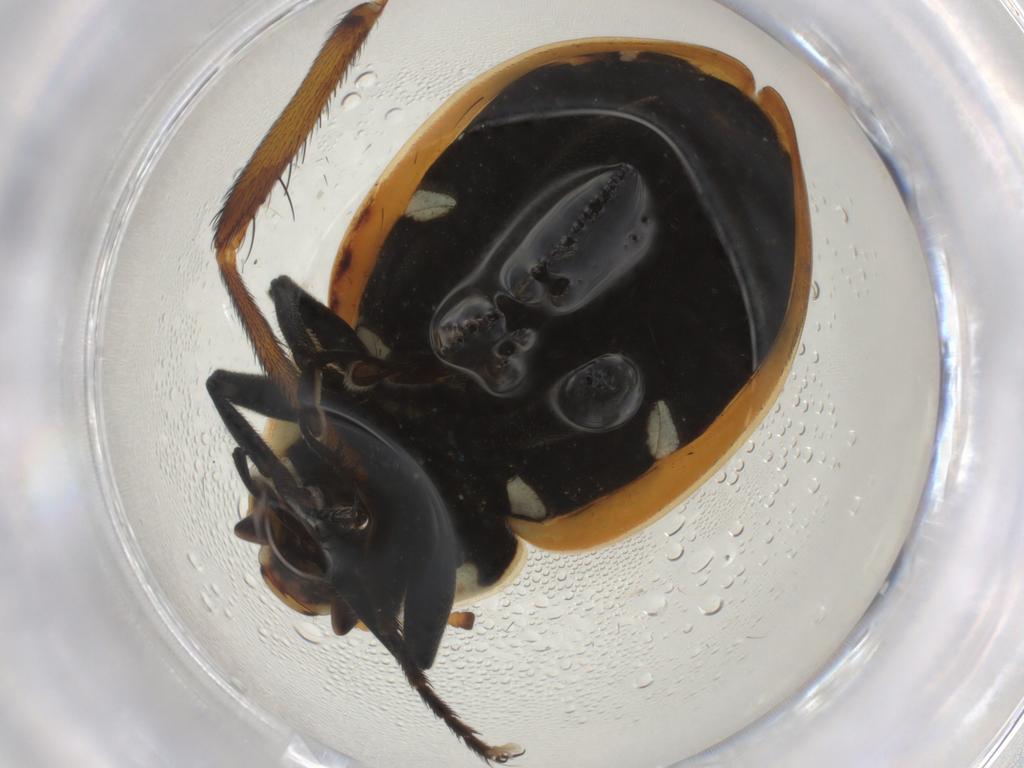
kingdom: Animalia
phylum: Arthropoda
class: Insecta
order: Coleoptera
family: Coccinellidae
